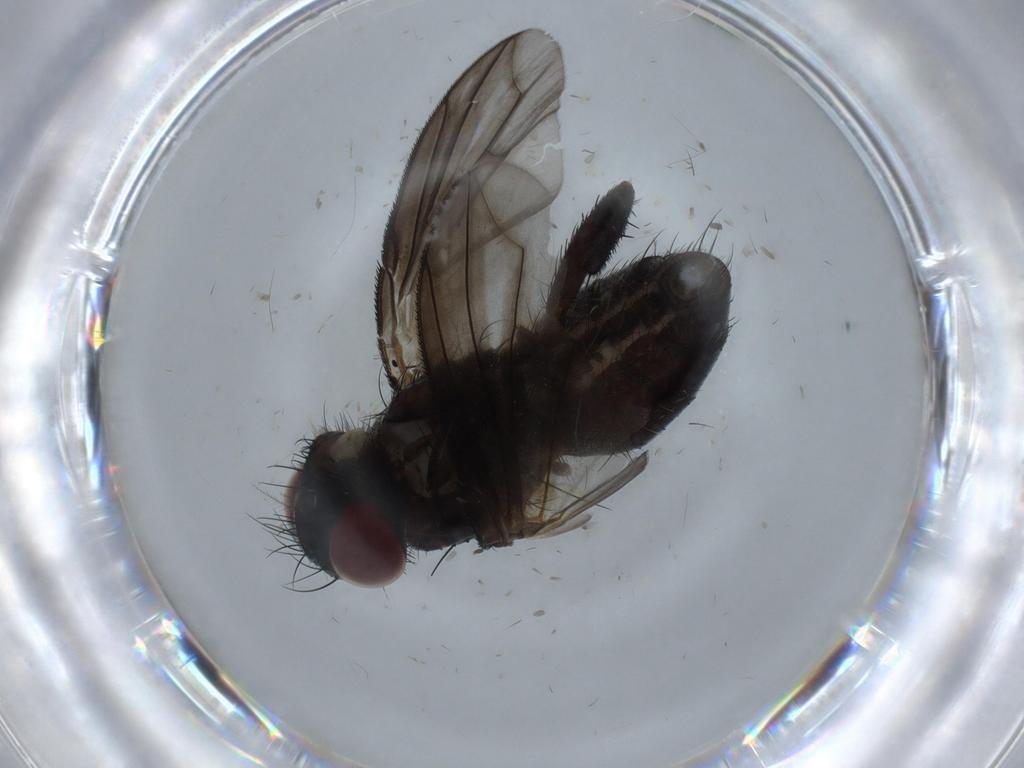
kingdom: Animalia
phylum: Arthropoda
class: Insecta
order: Diptera
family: Calliphoridae
